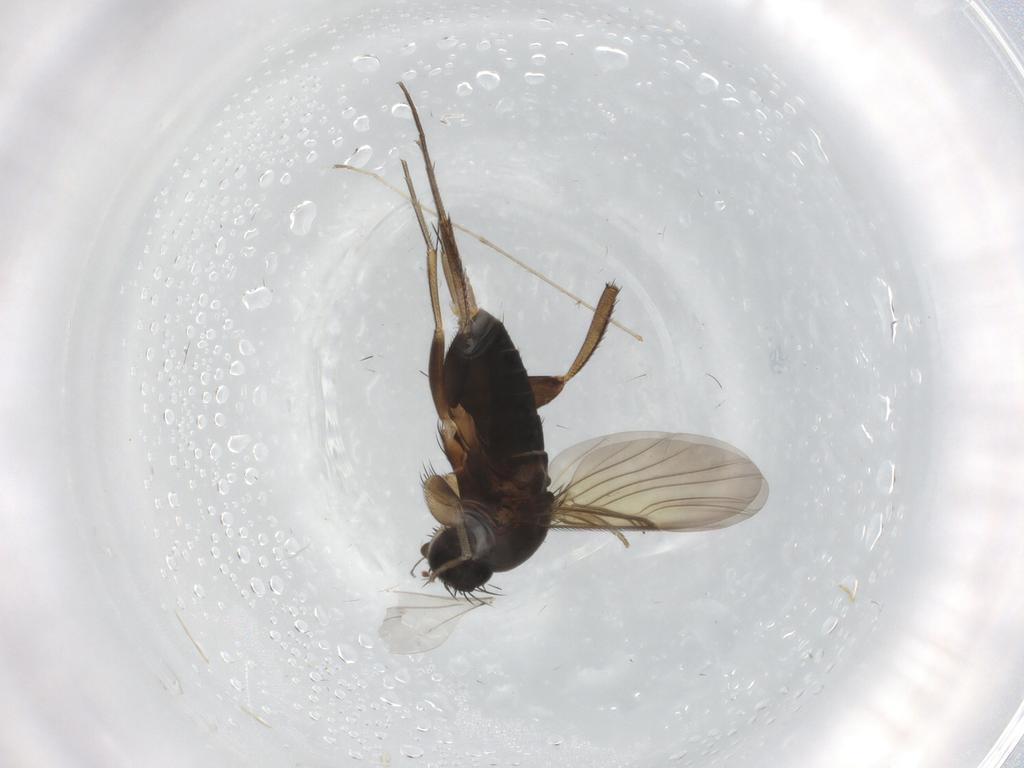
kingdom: Animalia
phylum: Arthropoda
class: Insecta
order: Diptera
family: Phoridae
